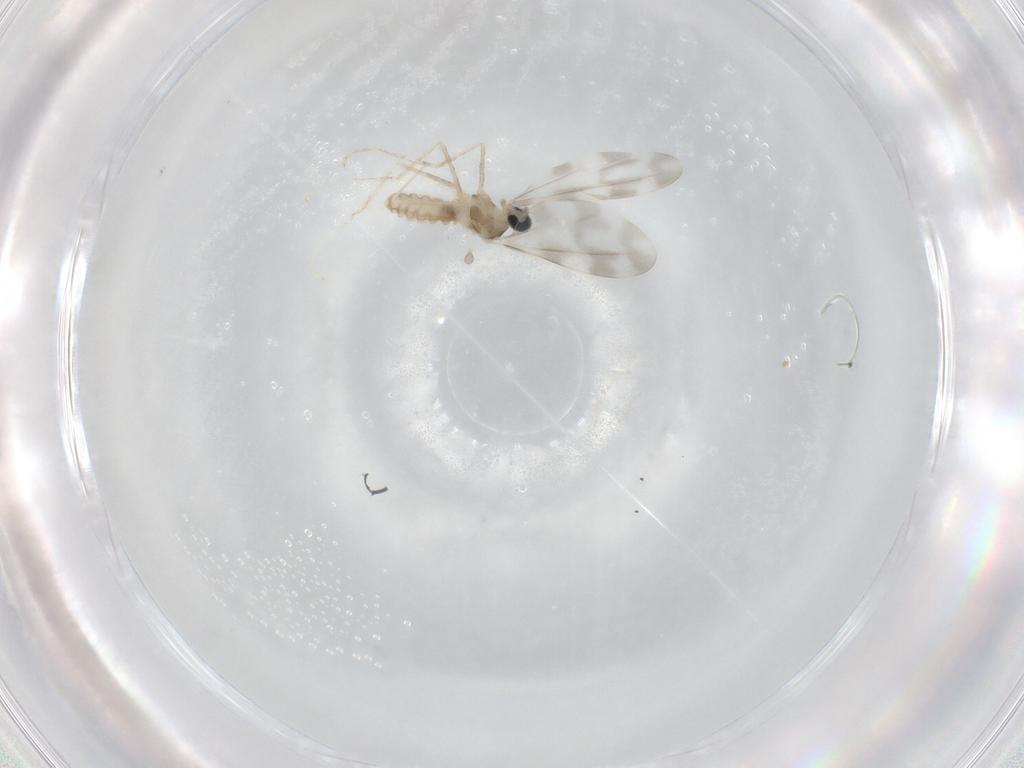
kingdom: Animalia
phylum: Arthropoda
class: Insecta
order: Diptera
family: Cecidomyiidae
